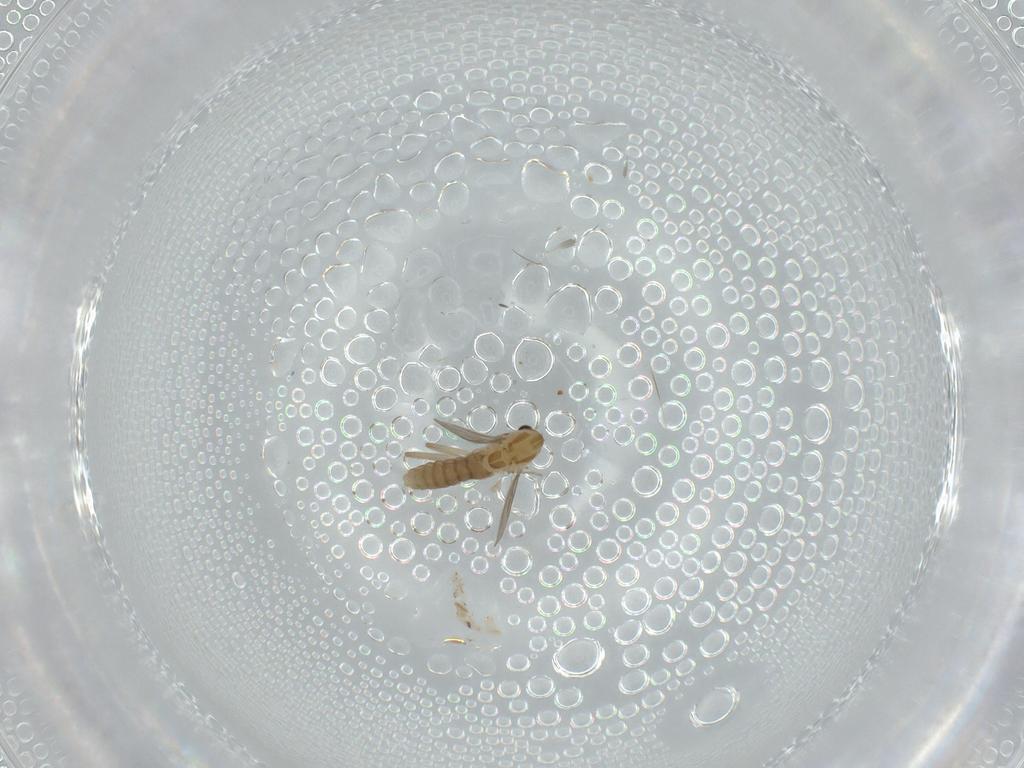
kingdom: Animalia
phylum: Arthropoda
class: Insecta
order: Diptera
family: Chironomidae
